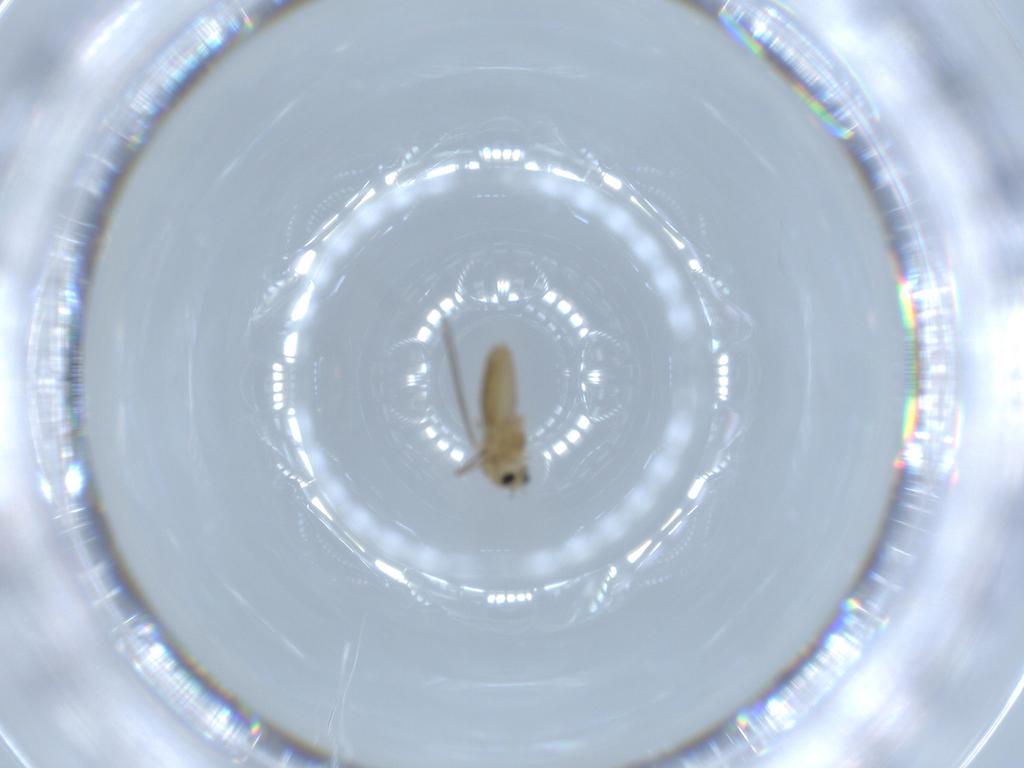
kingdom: Animalia
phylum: Arthropoda
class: Insecta
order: Diptera
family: Chironomidae
